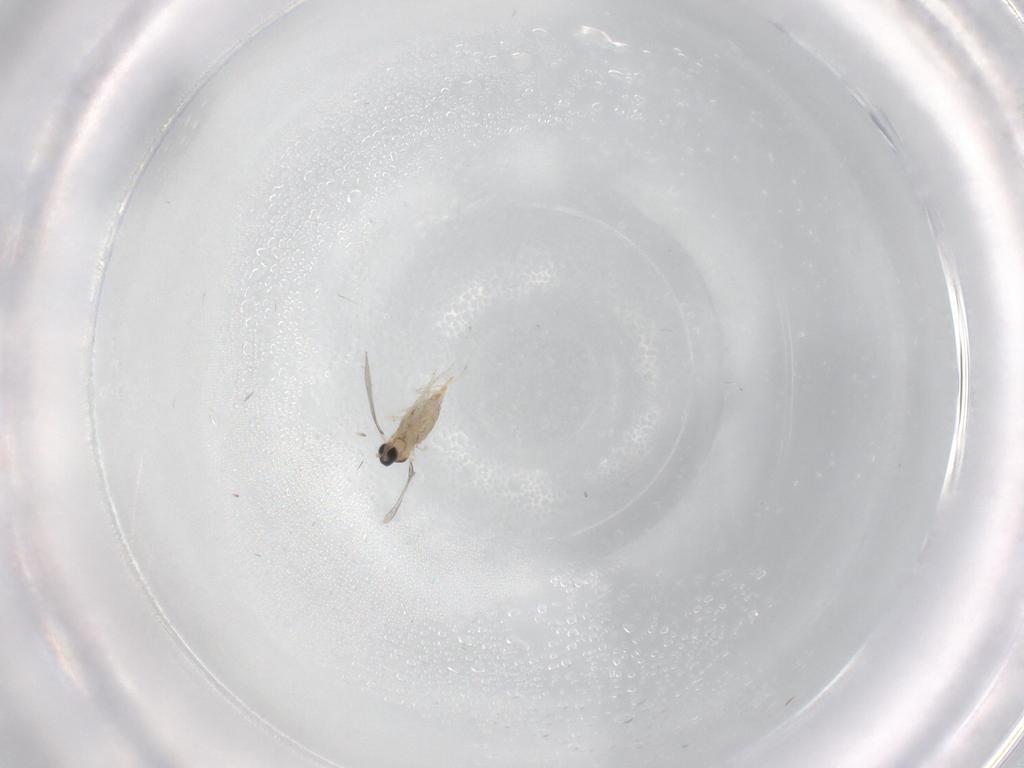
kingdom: Animalia
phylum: Arthropoda
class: Insecta
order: Diptera
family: Cecidomyiidae
